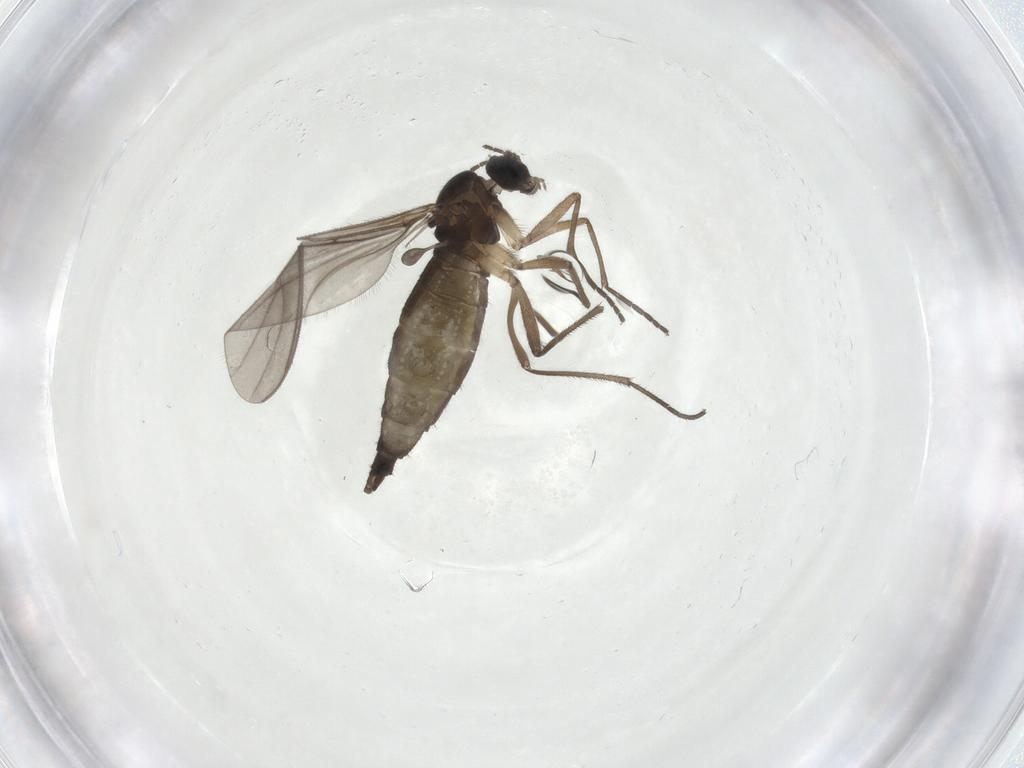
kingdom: Animalia
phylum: Arthropoda
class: Insecta
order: Diptera
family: Sciaridae
